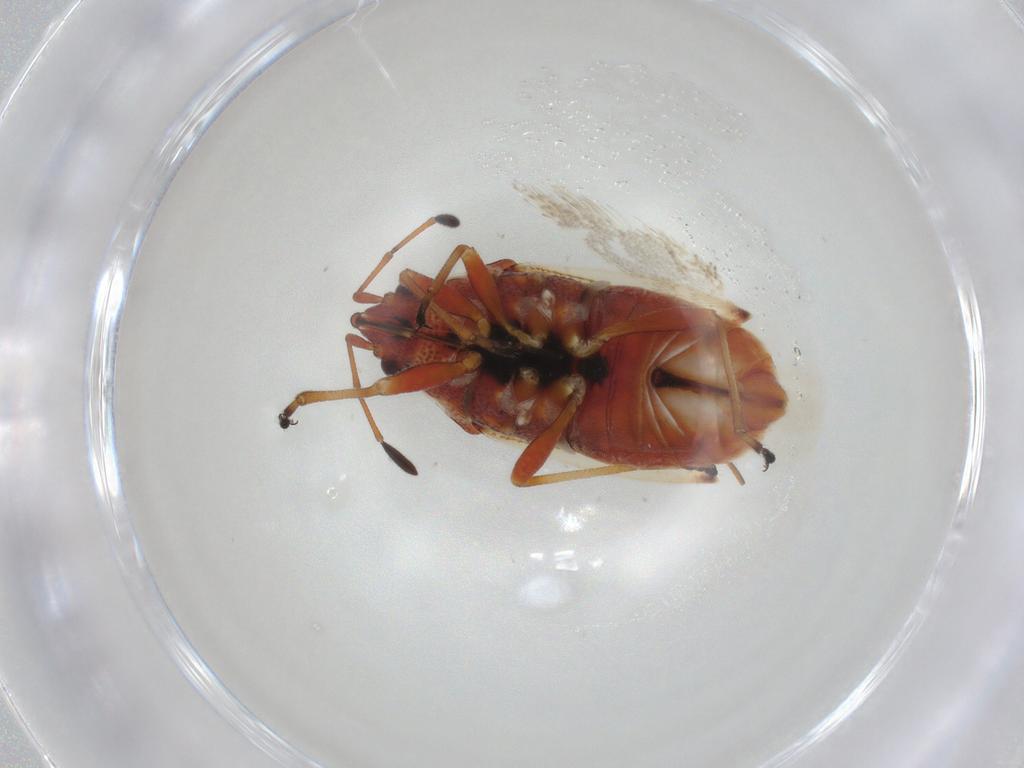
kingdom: Animalia
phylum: Arthropoda
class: Insecta
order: Hemiptera
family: Lygaeidae
